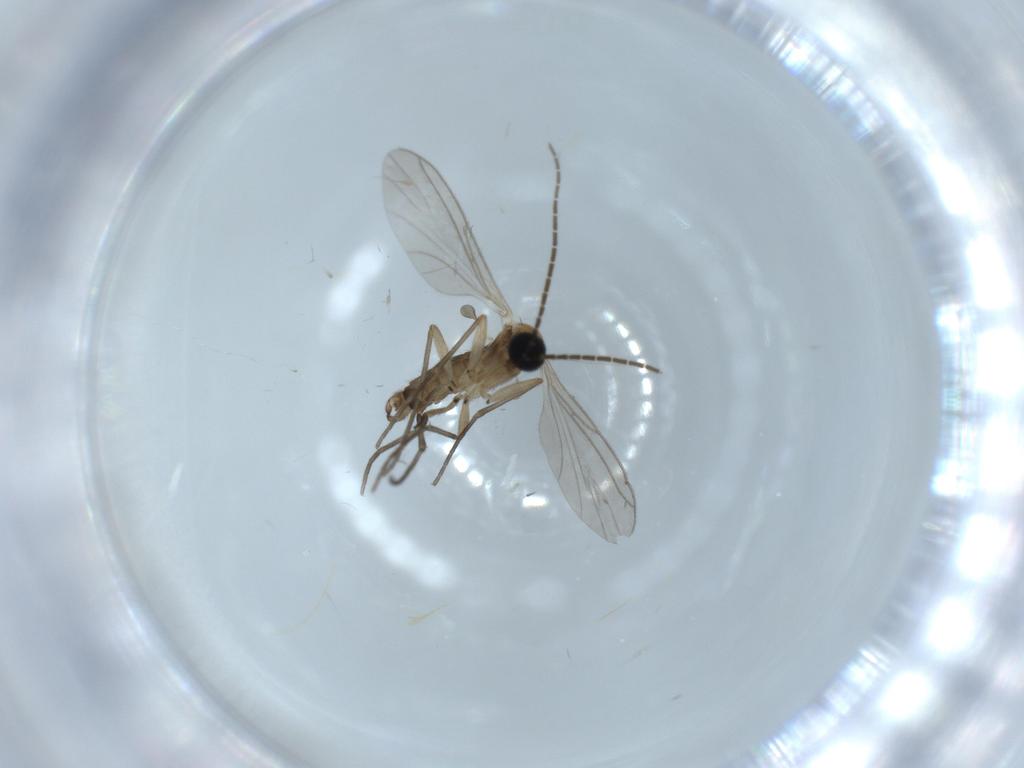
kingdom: Animalia
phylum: Arthropoda
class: Insecta
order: Diptera
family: Sciaridae
